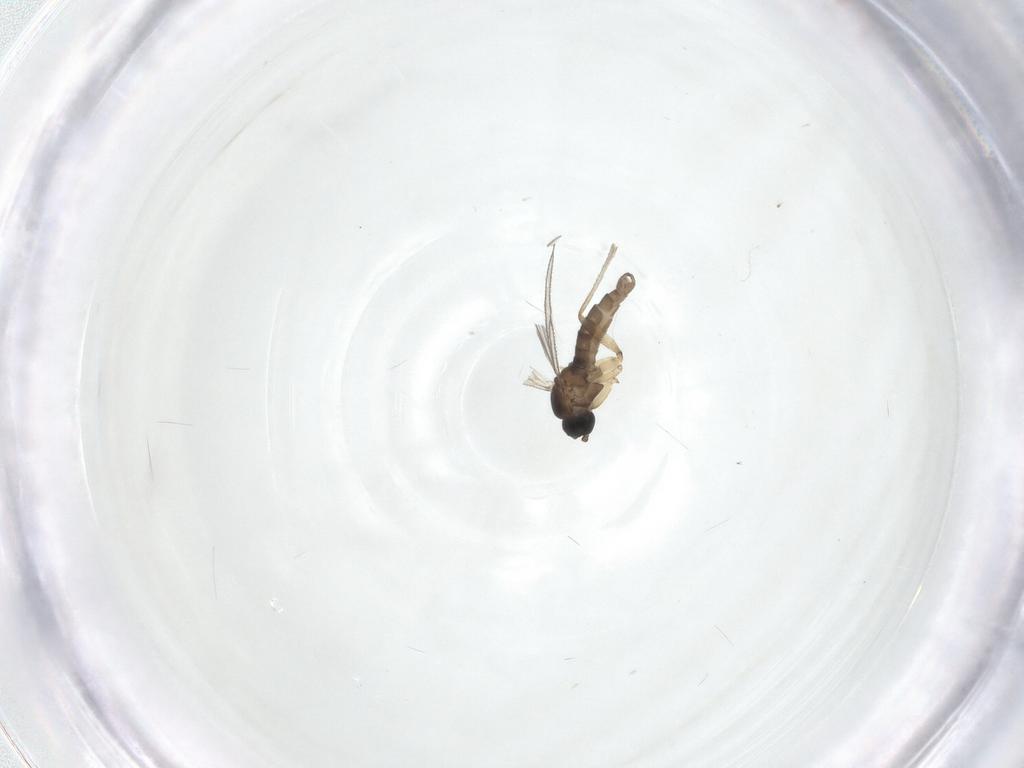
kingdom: Animalia
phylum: Arthropoda
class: Insecta
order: Diptera
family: Sciaridae
